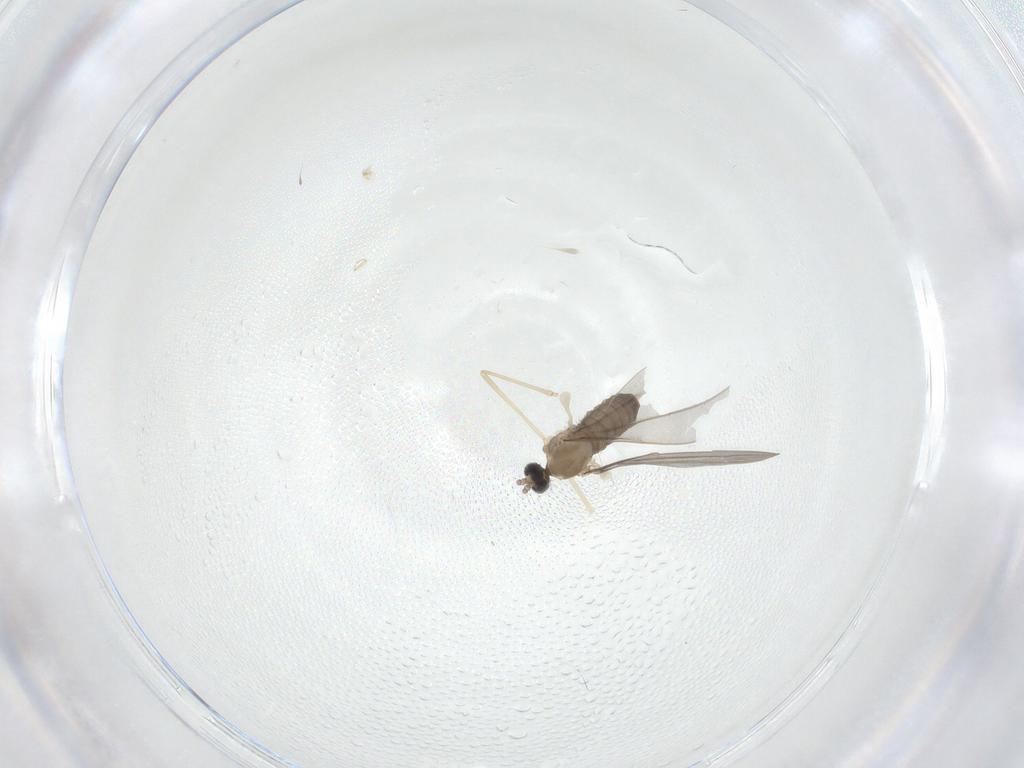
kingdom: Animalia
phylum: Arthropoda
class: Insecta
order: Diptera
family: Cecidomyiidae
